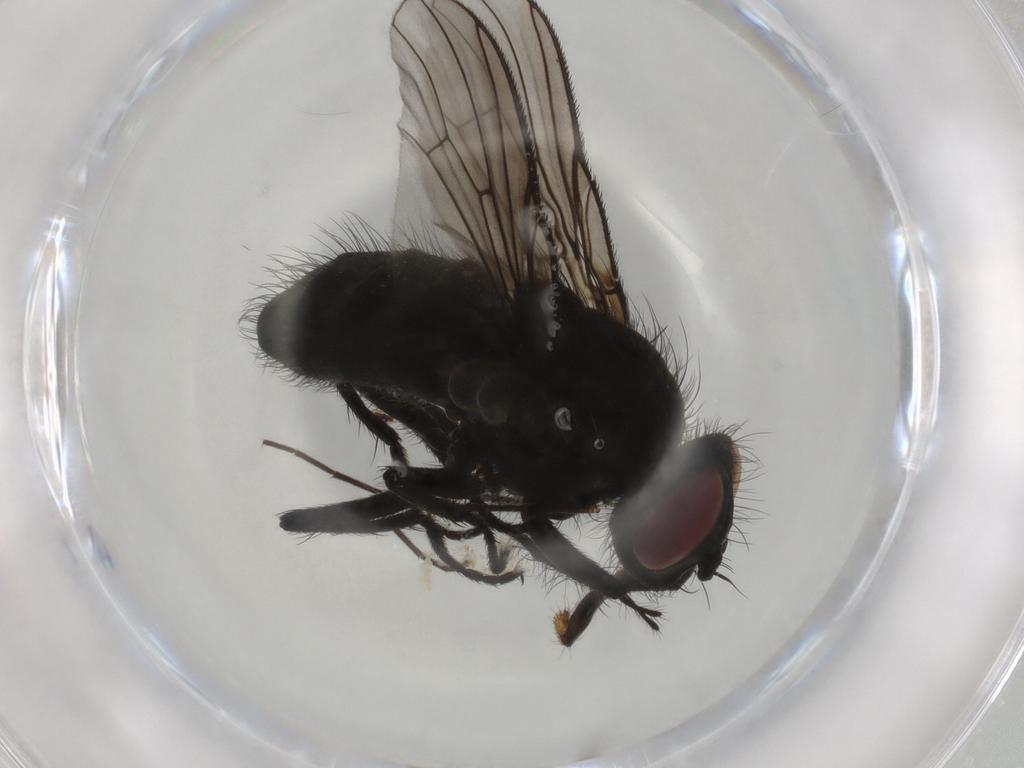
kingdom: Animalia
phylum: Arthropoda
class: Insecta
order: Diptera
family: Muscidae
